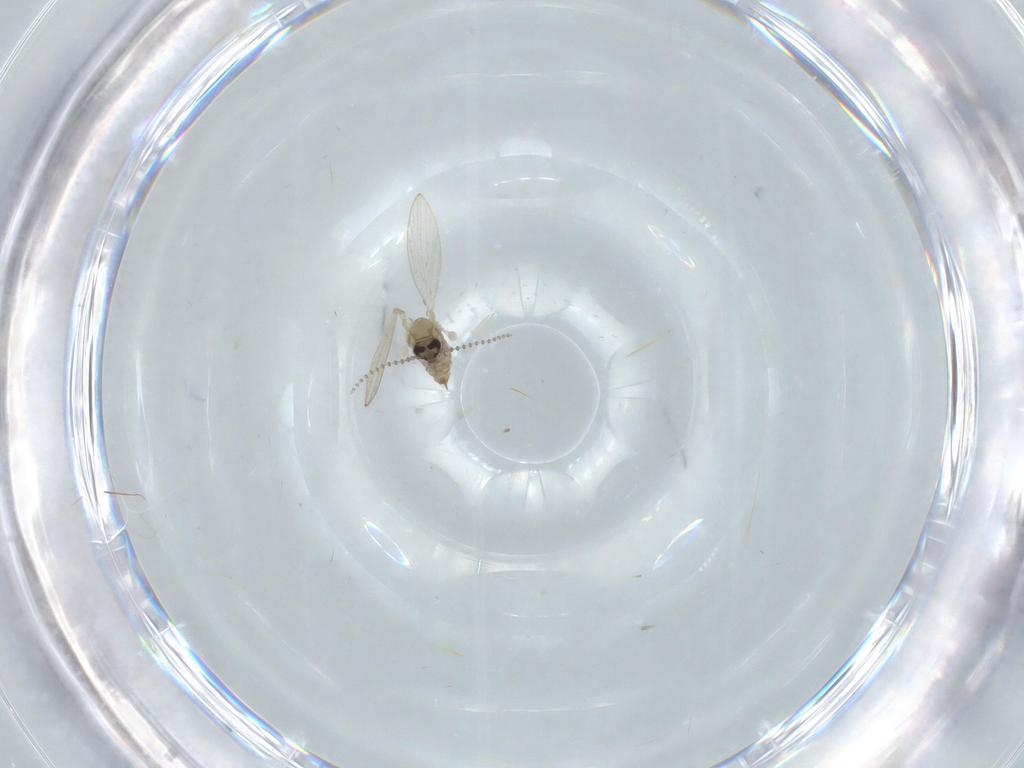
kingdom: Animalia
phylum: Arthropoda
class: Insecta
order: Diptera
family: Psychodidae
